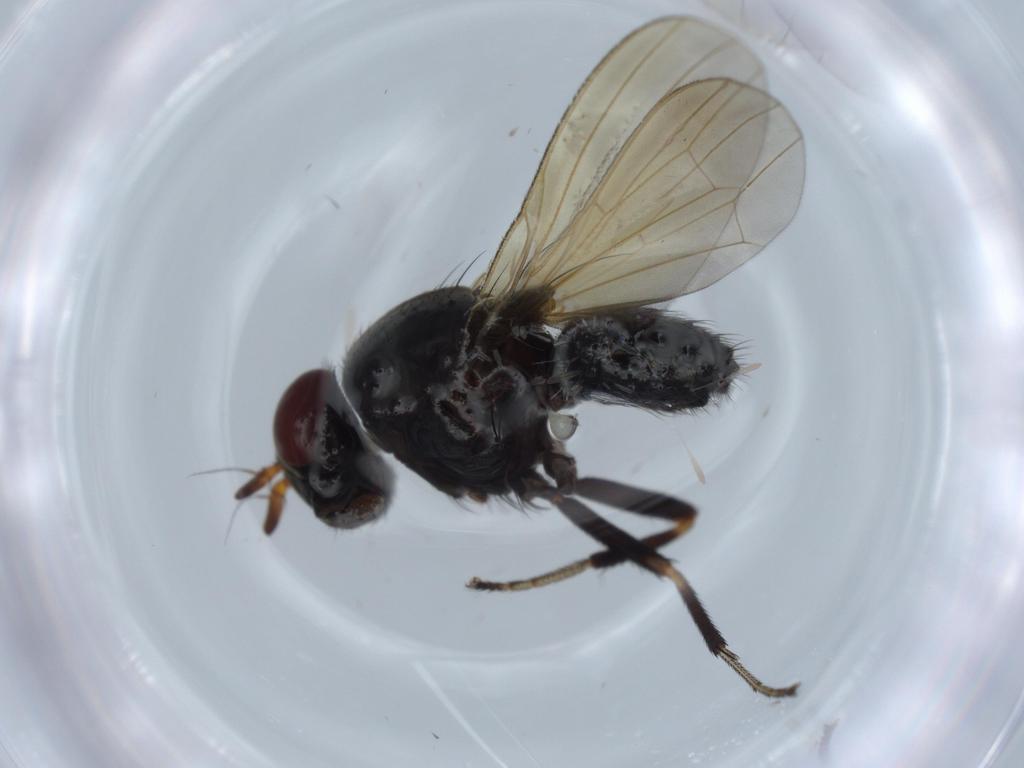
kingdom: Animalia
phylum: Arthropoda
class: Insecta
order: Diptera
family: Lauxaniidae
